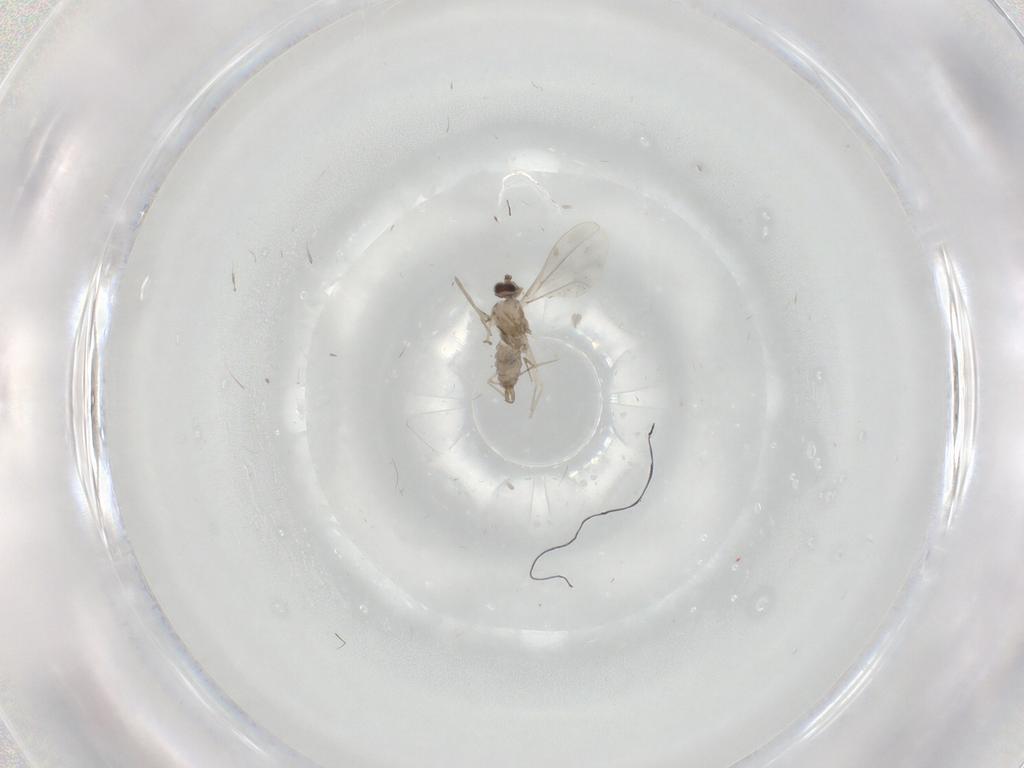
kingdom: Animalia
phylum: Arthropoda
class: Insecta
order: Diptera
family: Cecidomyiidae
